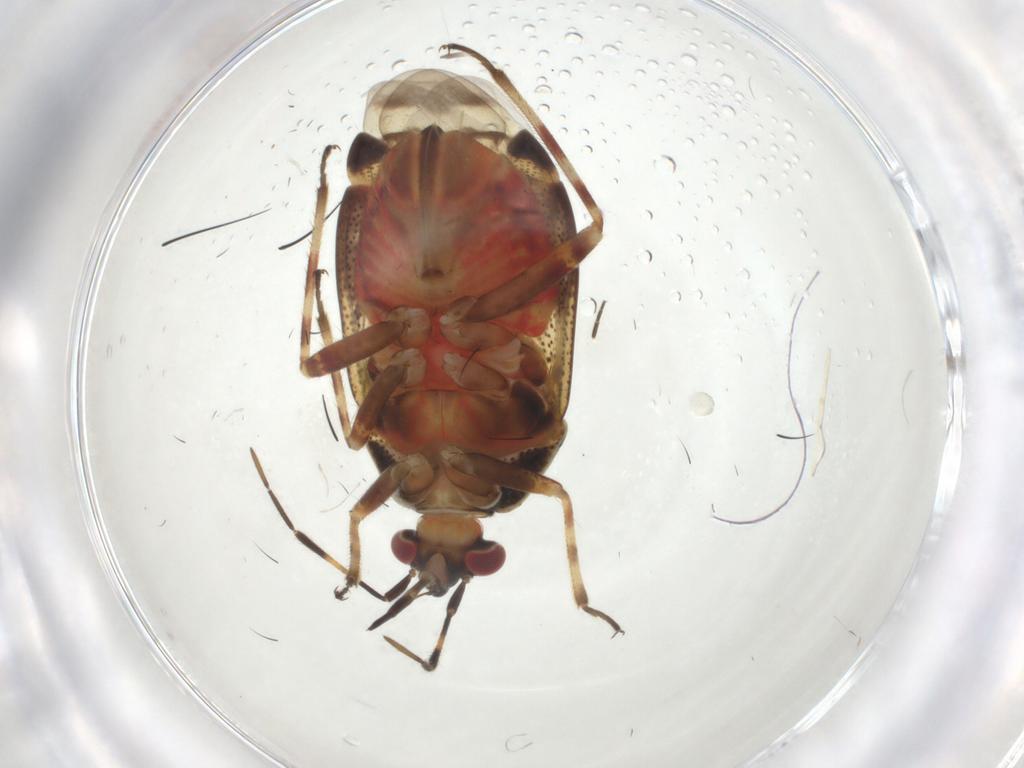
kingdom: Animalia
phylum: Arthropoda
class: Insecta
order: Hemiptera
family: Miridae
